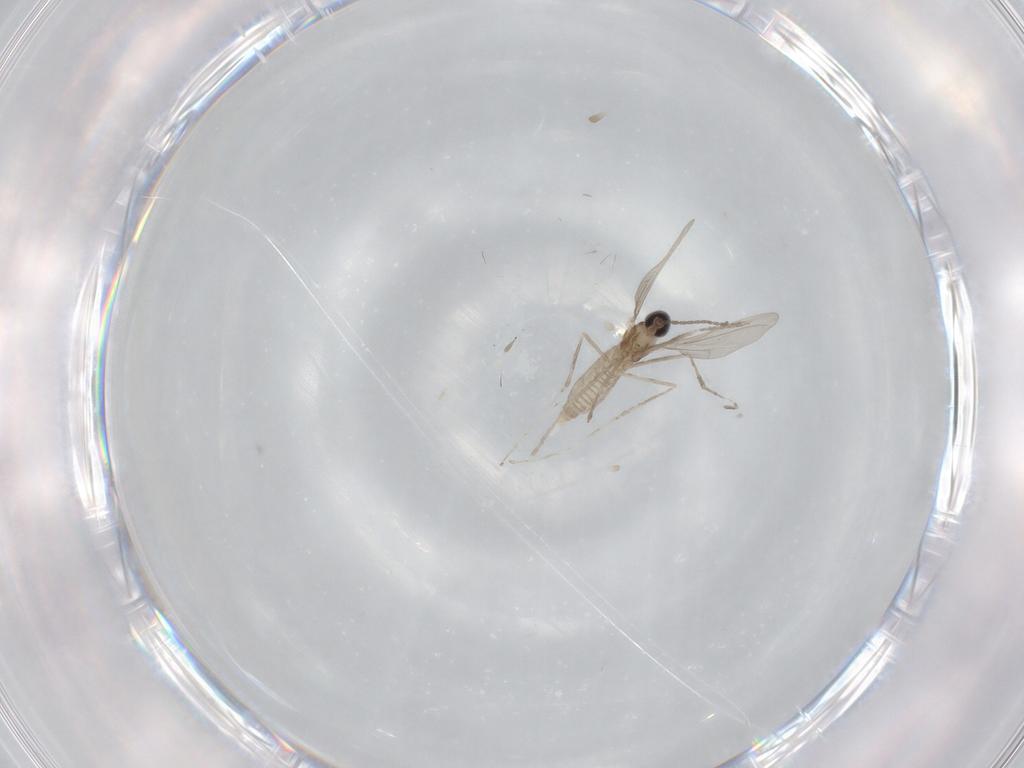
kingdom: Animalia
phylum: Arthropoda
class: Insecta
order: Diptera
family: Cecidomyiidae
